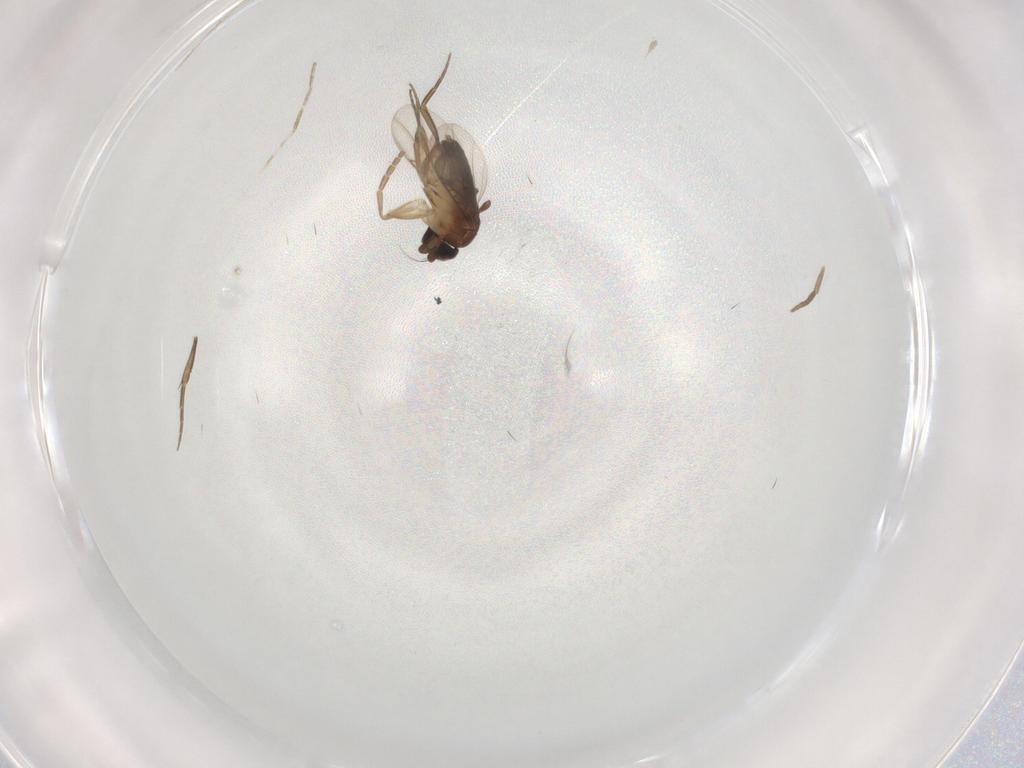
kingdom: Animalia
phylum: Arthropoda
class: Insecta
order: Diptera
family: Phoridae
